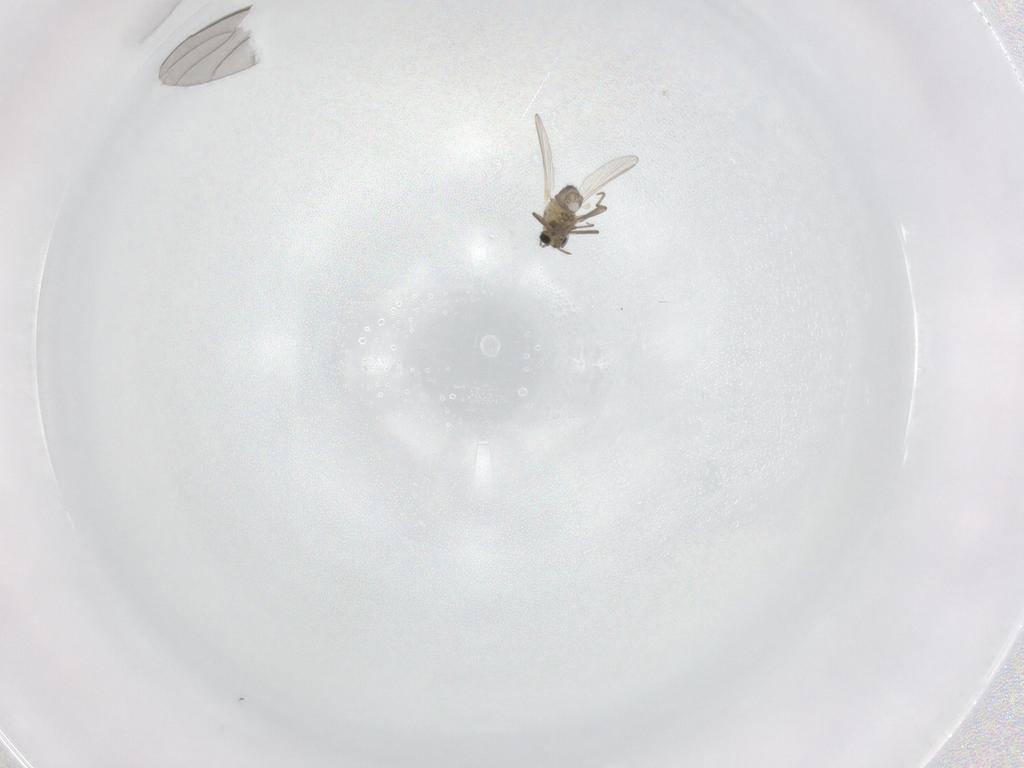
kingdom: Animalia
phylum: Arthropoda
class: Insecta
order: Diptera
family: Chironomidae
